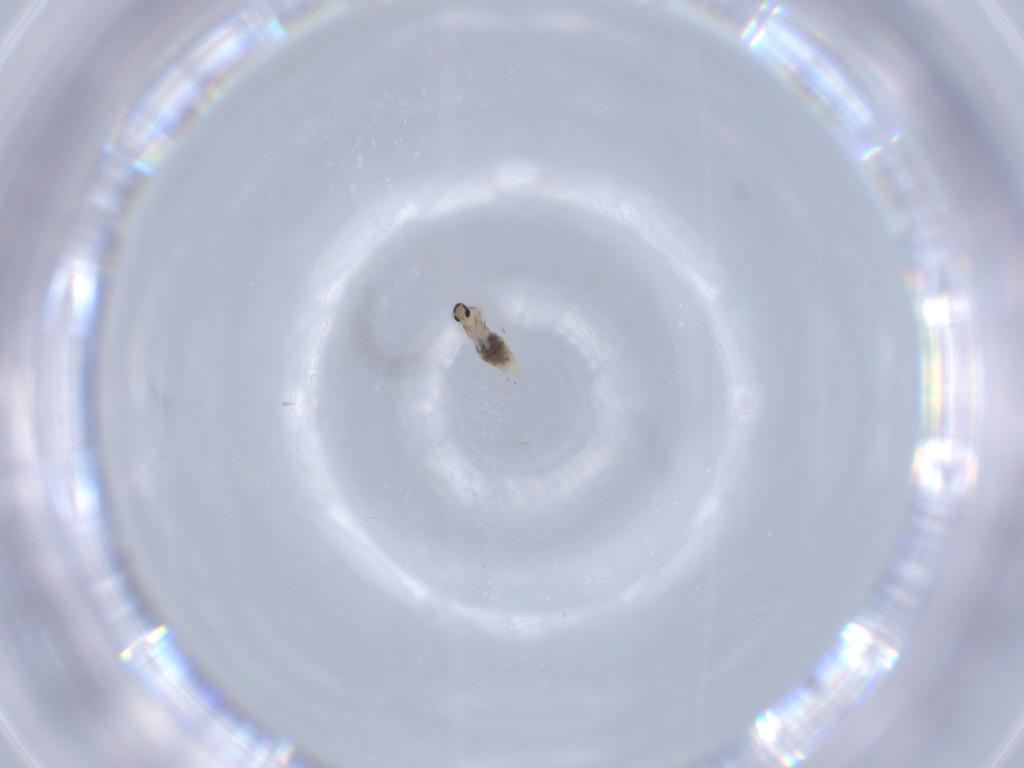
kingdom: Animalia
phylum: Arthropoda
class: Insecta
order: Diptera
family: Cecidomyiidae
